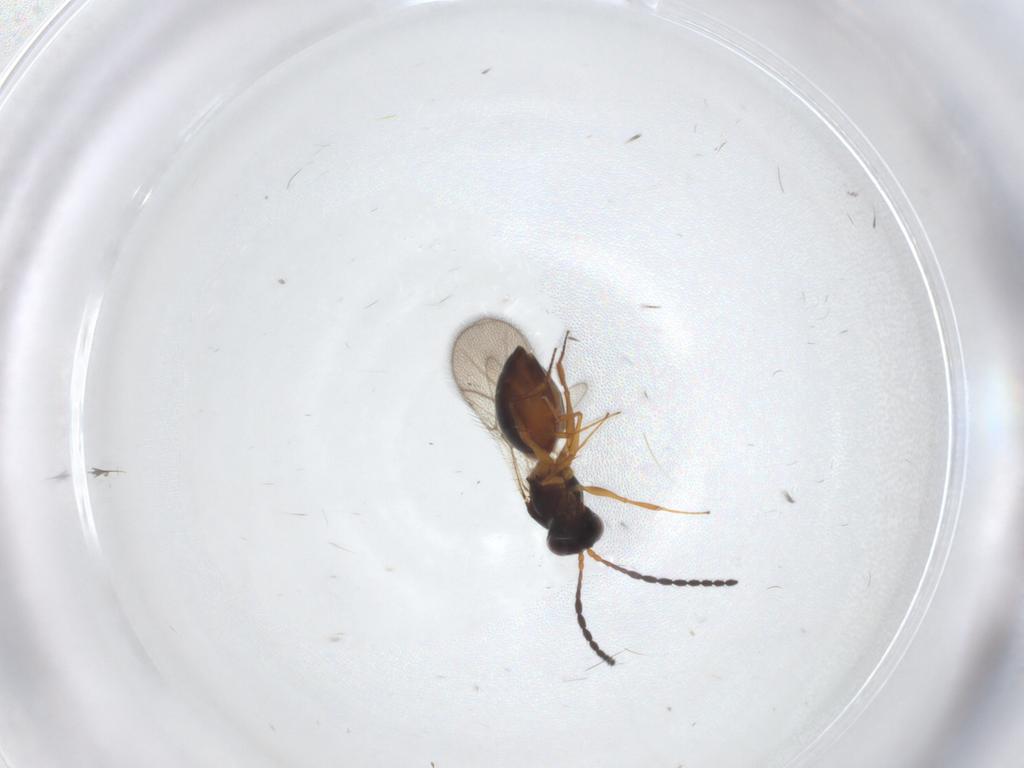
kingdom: Animalia
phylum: Arthropoda
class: Insecta
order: Hymenoptera
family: Figitidae
